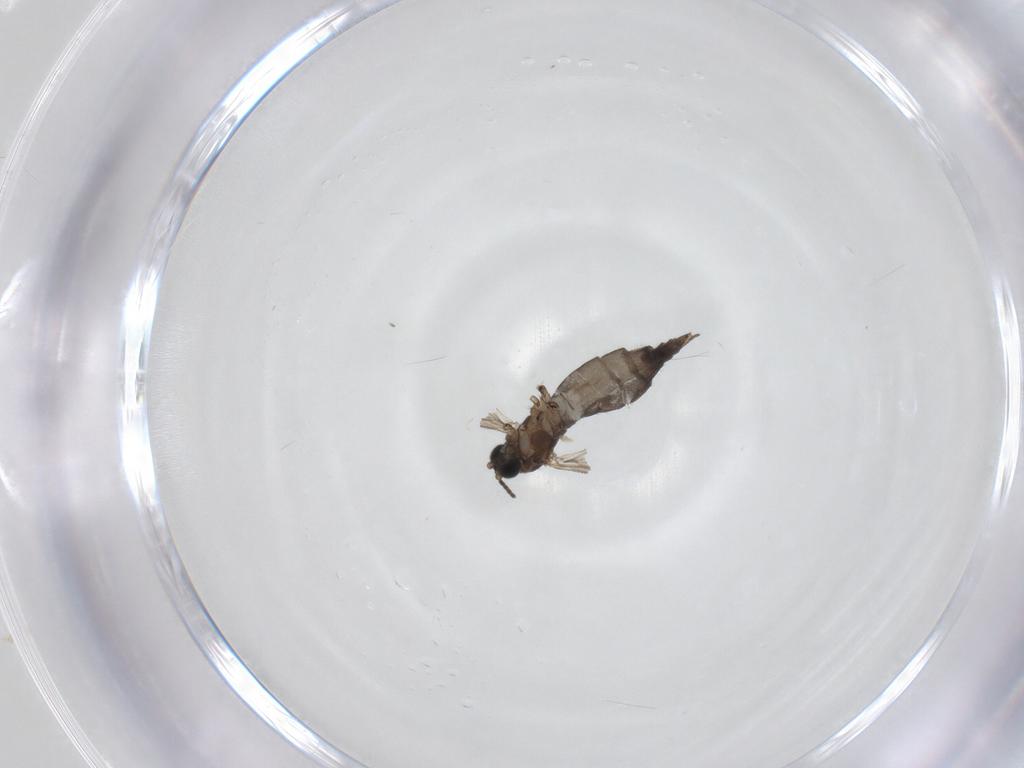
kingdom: Animalia
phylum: Arthropoda
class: Insecta
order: Diptera
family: Sciaridae
